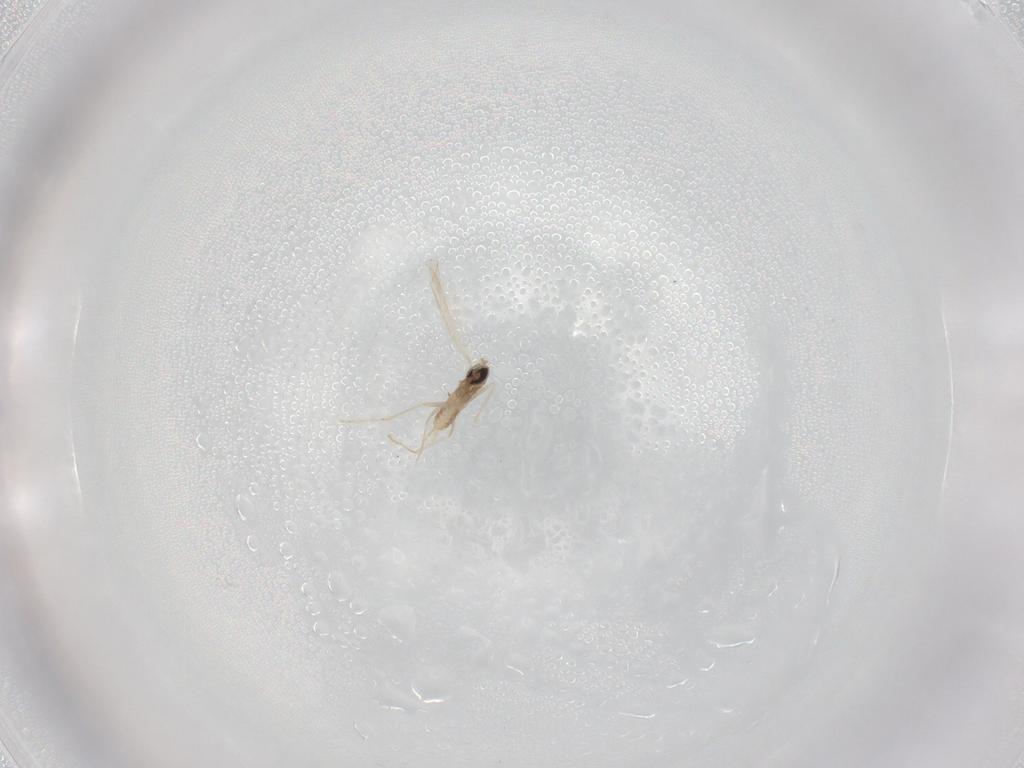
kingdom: Animalia
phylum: Arthropoda
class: Insecta
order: Diptera
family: Cecidomyiidae
